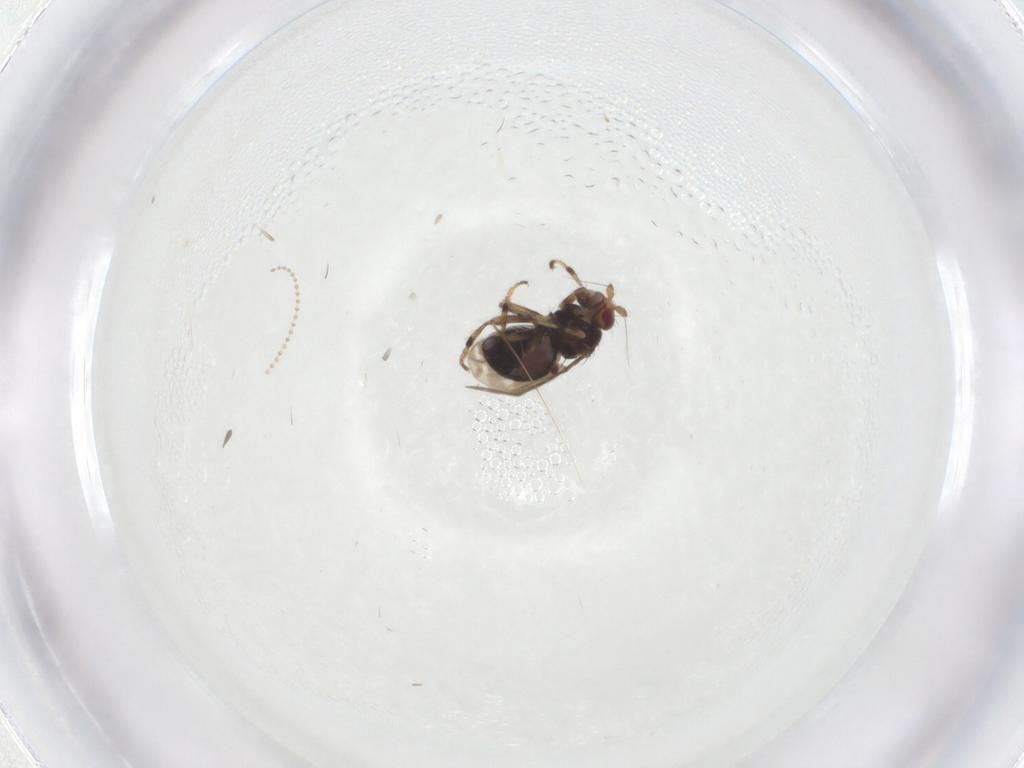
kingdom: Animalia
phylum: Arthropoda
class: Insecta
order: Diptera
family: Sphaeroceridae
